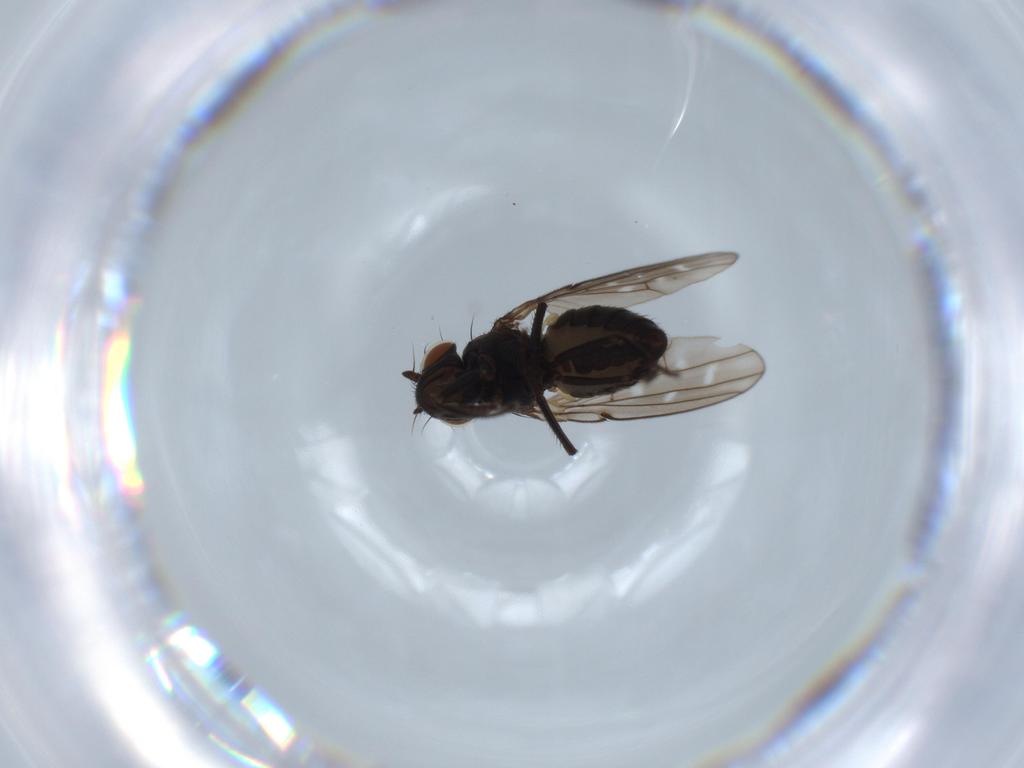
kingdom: Animalia
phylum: Arthropoda
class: Insecta
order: Diptera
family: Ephydridae
